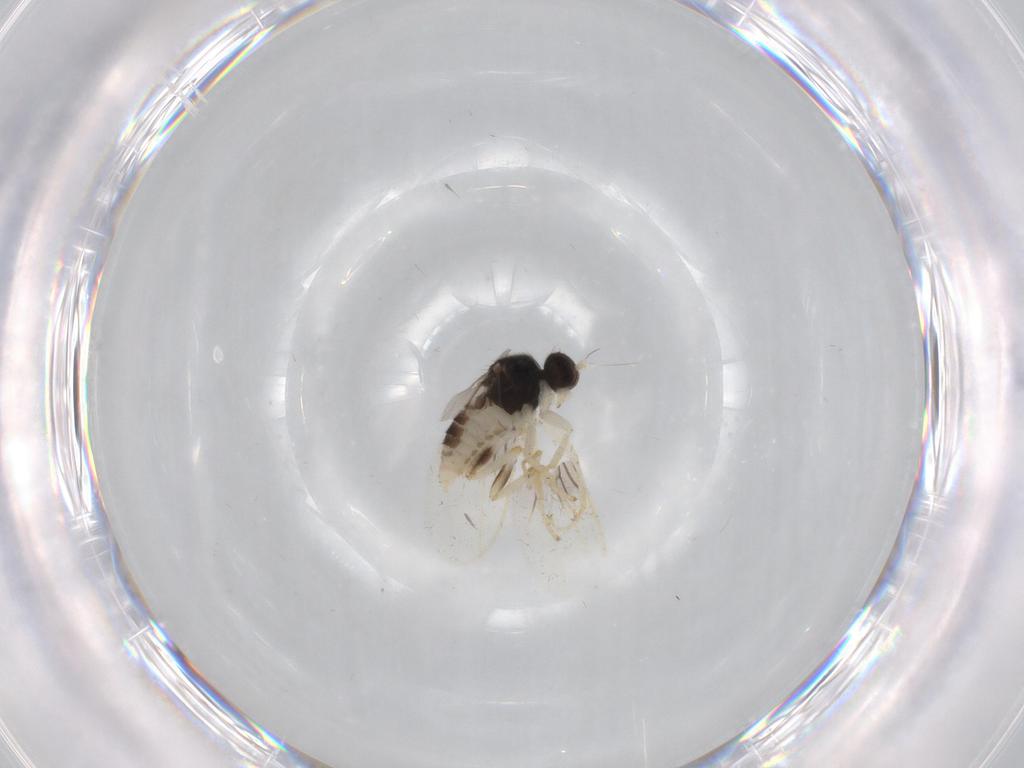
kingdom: Animalia
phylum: Arthropoda
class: Insecta
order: Diptera
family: Hybotidae
